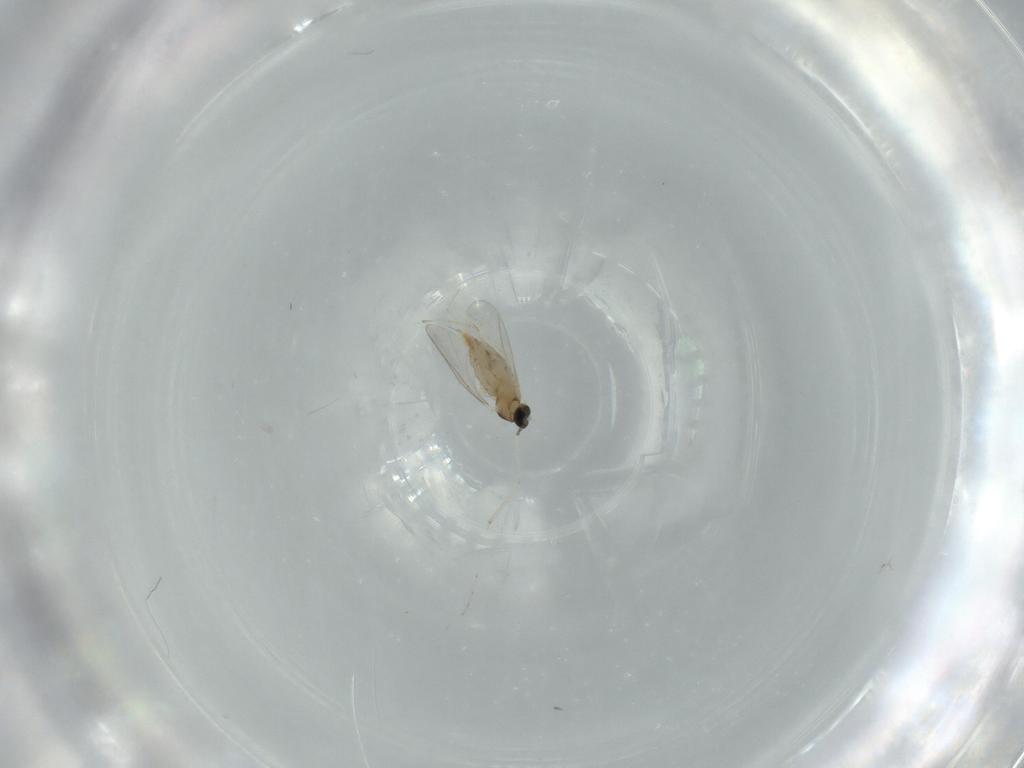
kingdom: Animalia
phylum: Arthropoda
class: Insecta
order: Diptera
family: Cecidomyiidae
